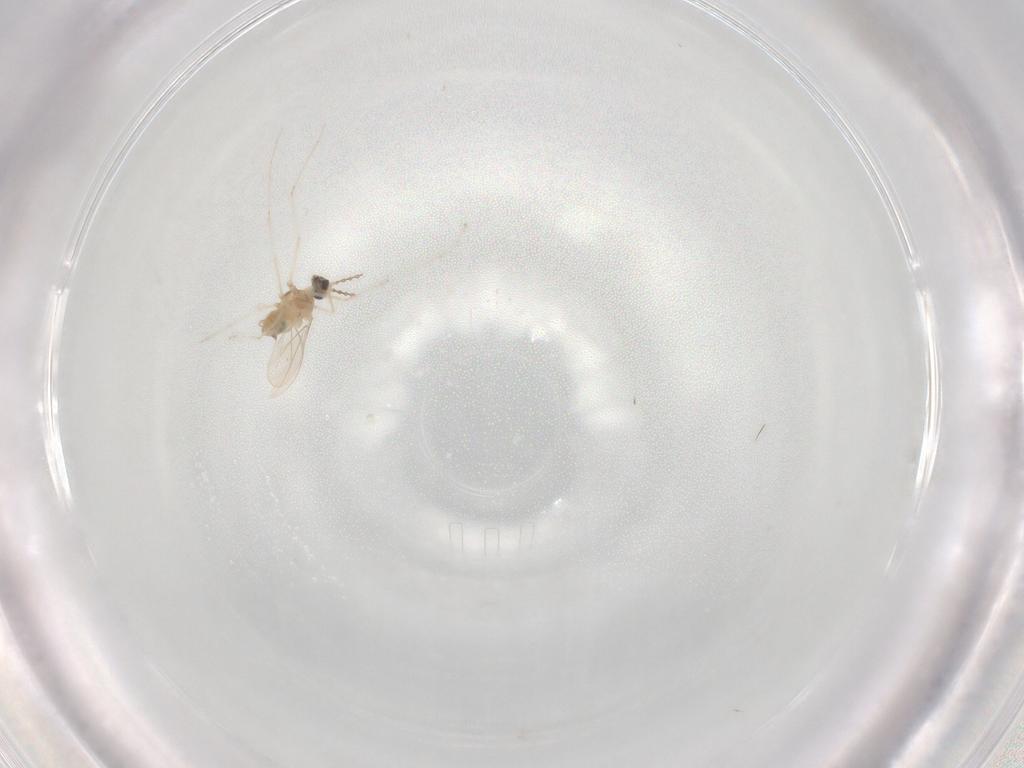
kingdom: Animalia
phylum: Arthropoda
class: Insecta
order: Diptera
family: Cecidomyiidae
